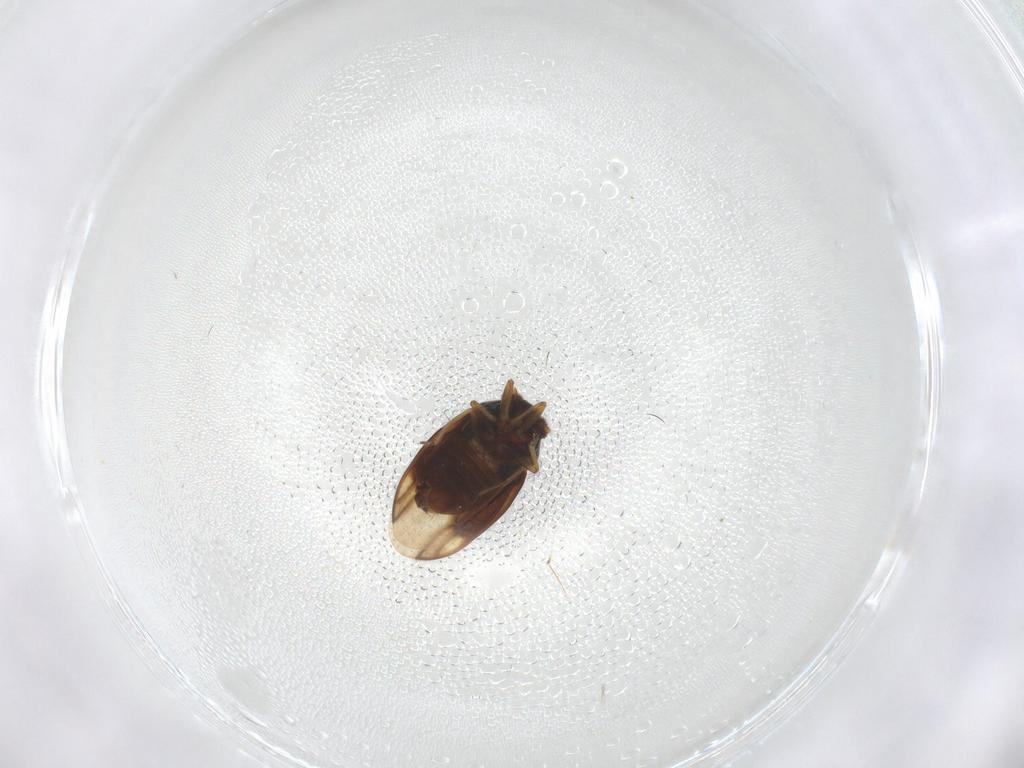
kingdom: Animalia
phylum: Arthropoda
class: Insecta
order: Hemiptera
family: Schizopteridae
